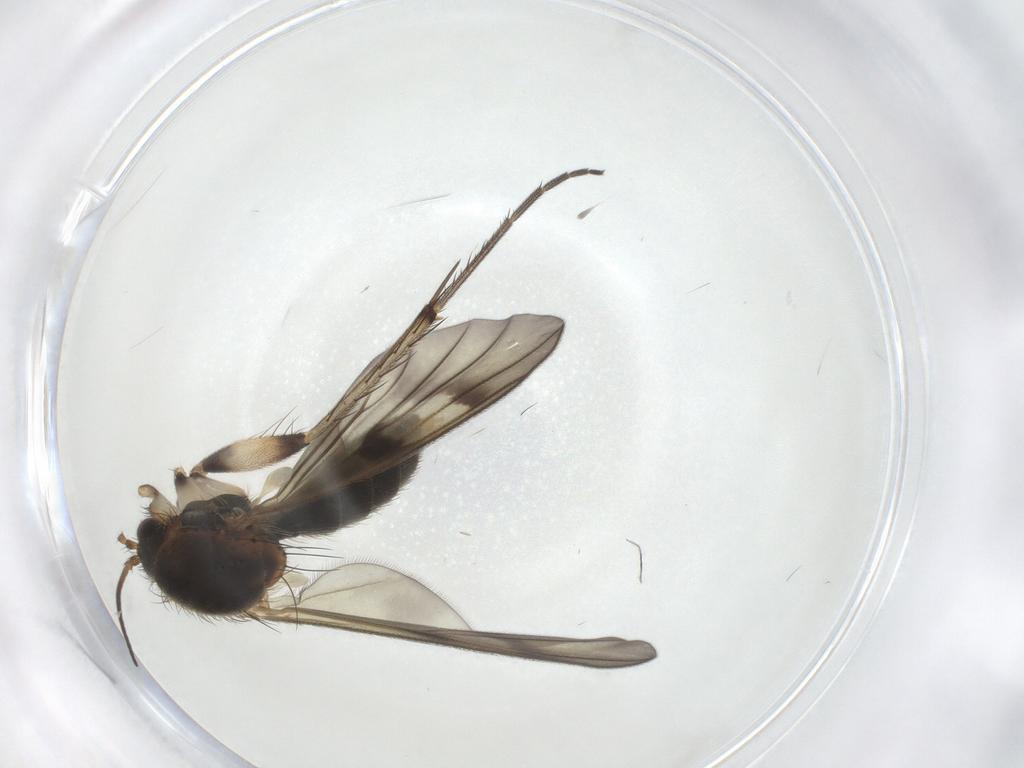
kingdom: Animalia
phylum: Arthropoda
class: Insecta
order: Diptera
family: Mycetophilidae
